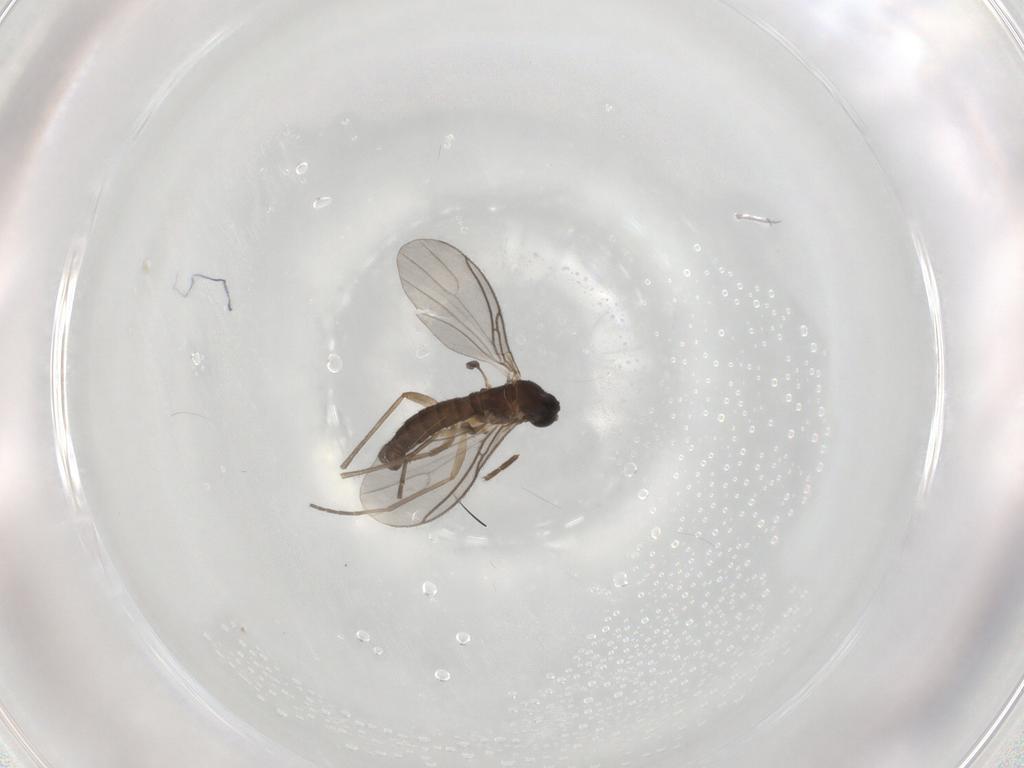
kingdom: Animalia
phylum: Arthropoda
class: Insecta
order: Diptera
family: Sciaridae
